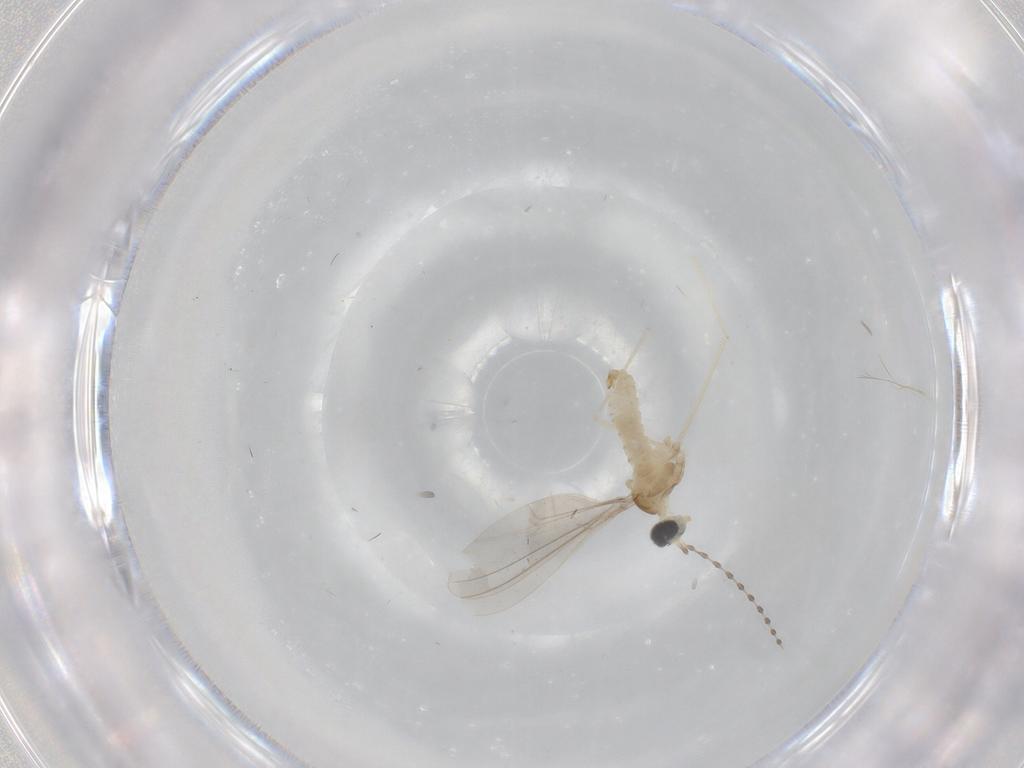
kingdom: Animalia
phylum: Arthropoda
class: Insecta
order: Diptera
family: Cecidomyiidae
